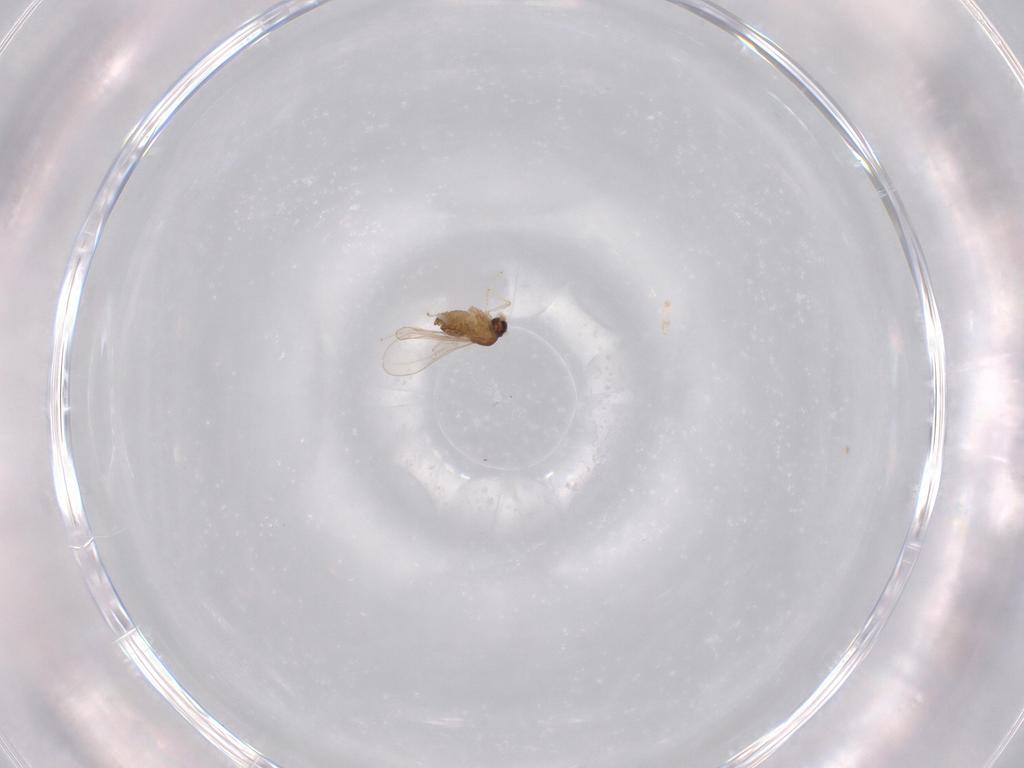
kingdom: Animalia
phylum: Arthropoda
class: Insecta
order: Diptera
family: Cecidomyiidae
